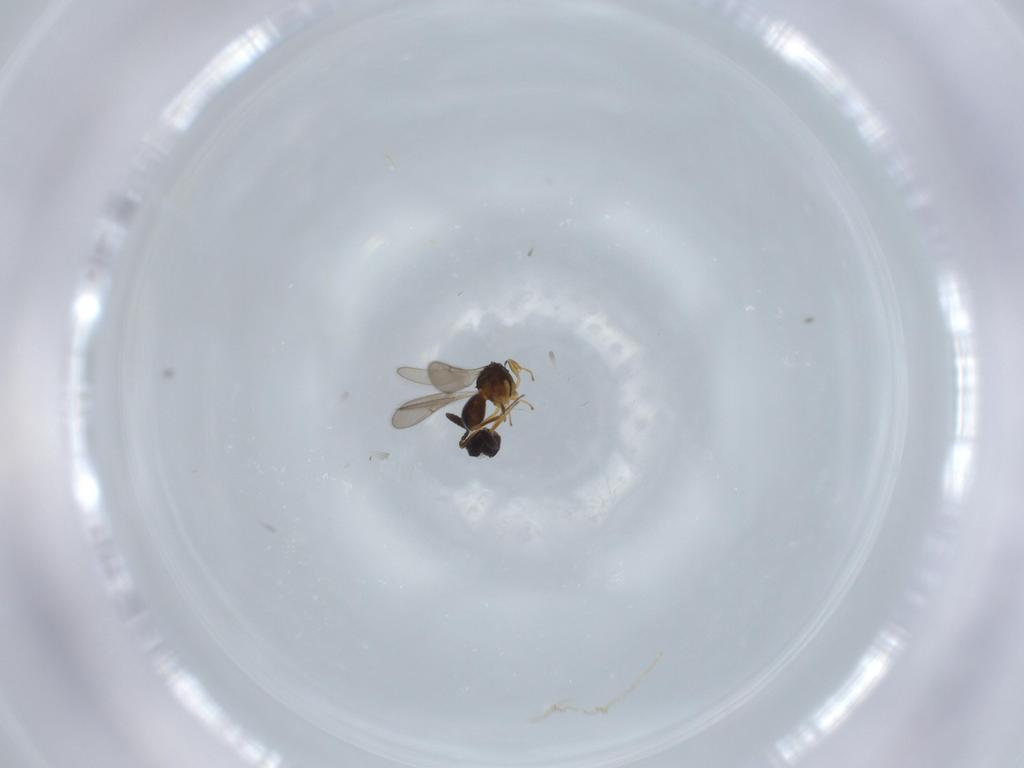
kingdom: Animalia
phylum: Arthropoda
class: Insecta
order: Hymenoptera
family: Scelionidae
